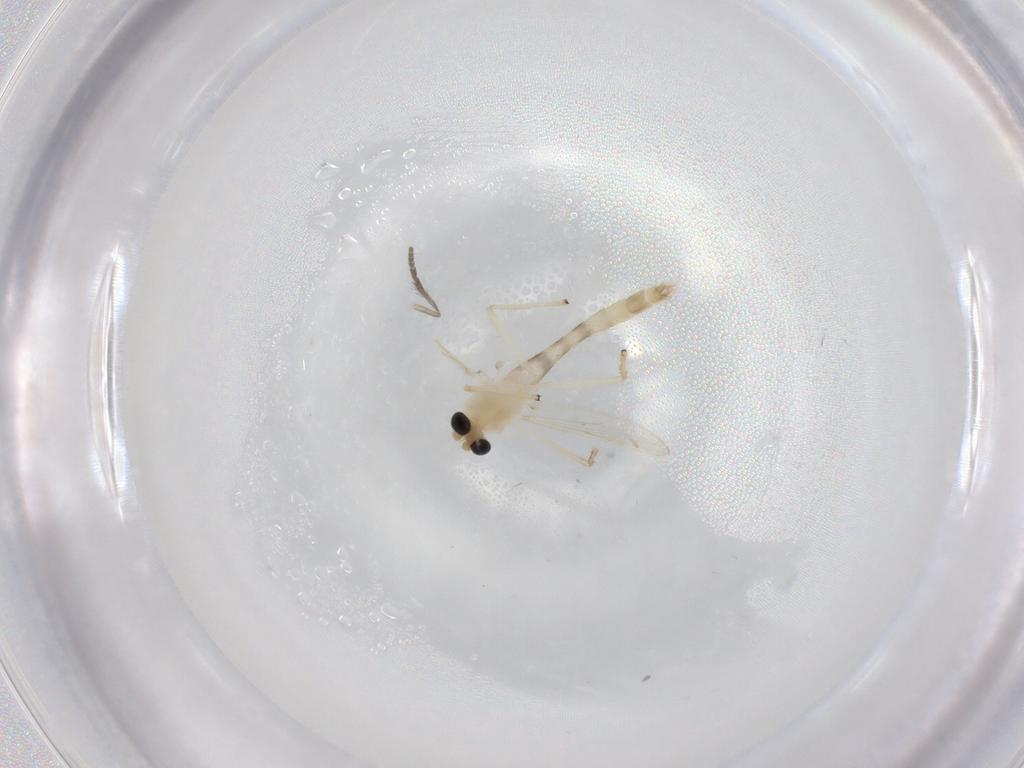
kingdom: Animalia
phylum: Arthropoda
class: Insecta
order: Diptera
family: Chironomidae
